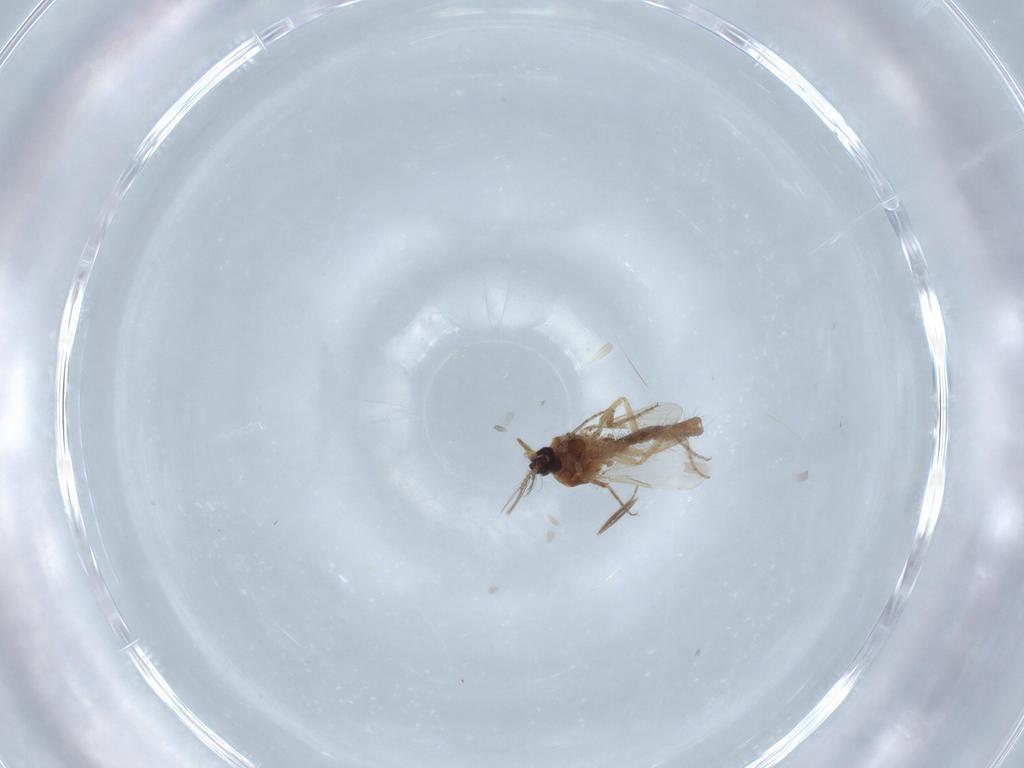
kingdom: Animalia
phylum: Arthropoda
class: Insecta
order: Diptera
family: Ceratopogonidae
